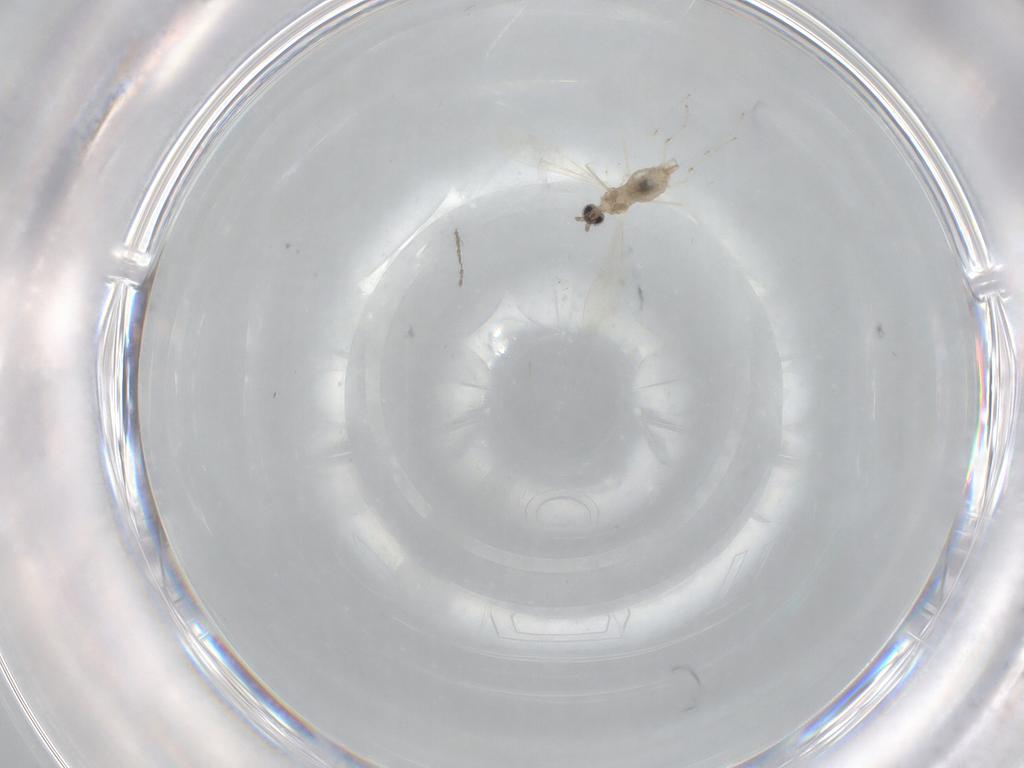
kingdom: Animalia
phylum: Arthropoda
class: Insecta
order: Diptera
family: Cecidomyiidae
